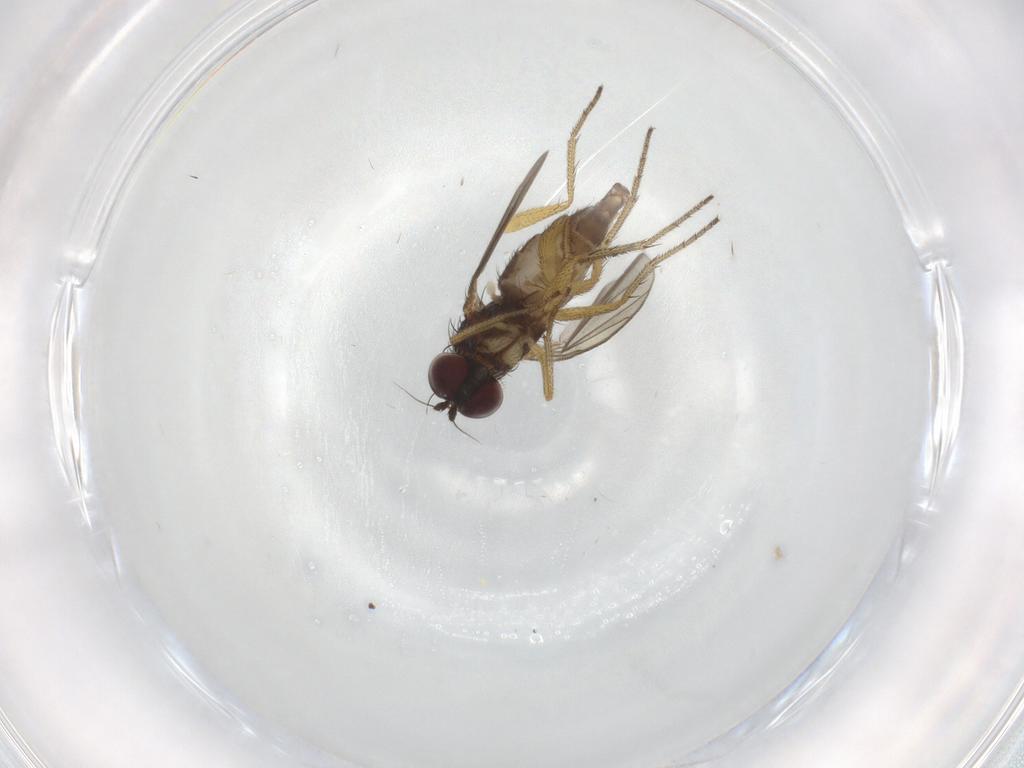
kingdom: Animalia
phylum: Arthropoda
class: Insecta
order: Diptera
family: Dolichopodidae
